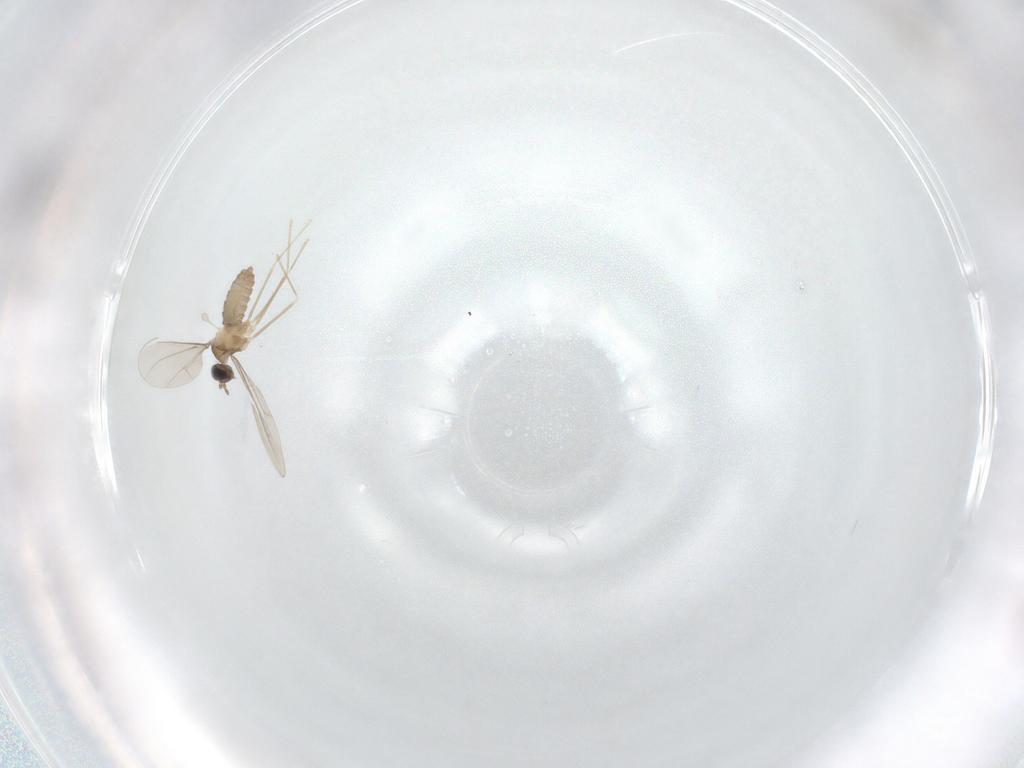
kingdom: Animalia
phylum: Arthropoda
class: Insecta
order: Diptera
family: Cecidomyiidae
